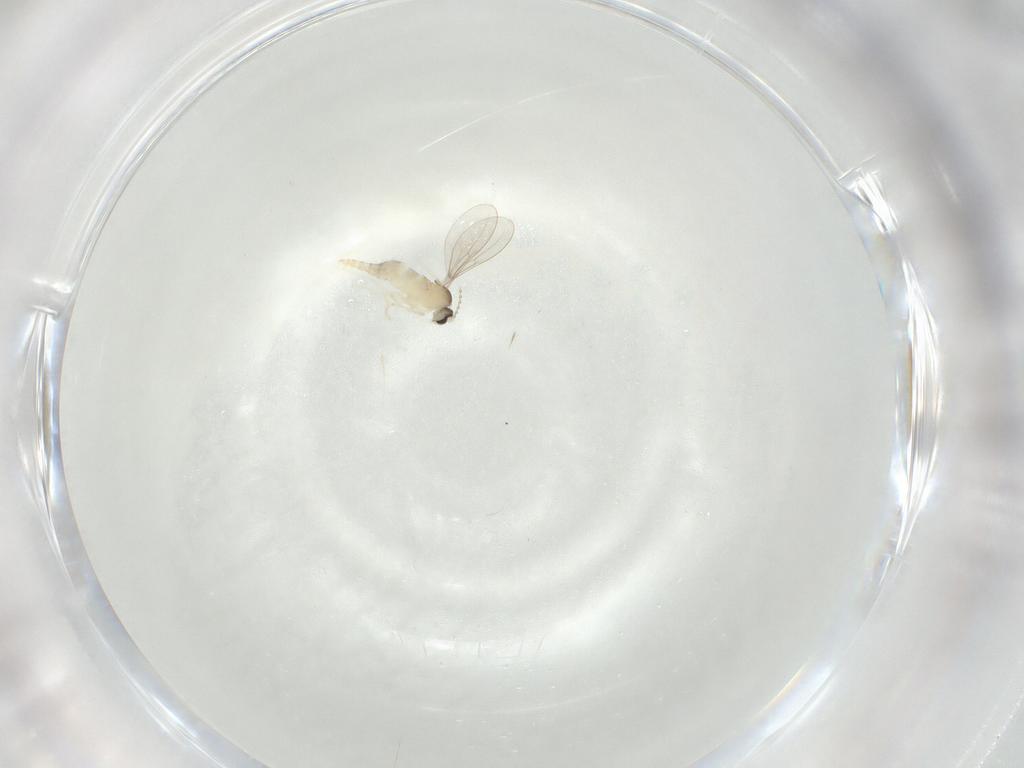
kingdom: Animalia
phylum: Arthropoda
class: Insecta
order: Diptera
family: Cecidomyiidae
